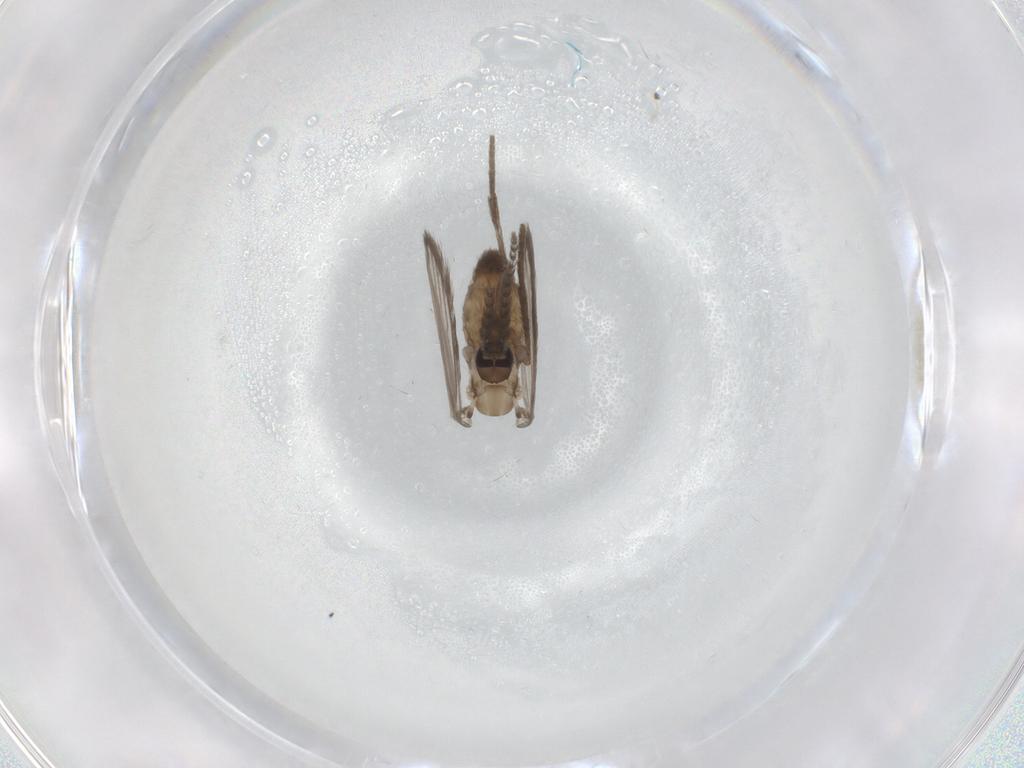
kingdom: Animalia
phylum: Arthropoda
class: Insecta
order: Diptera
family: Psychodidae
